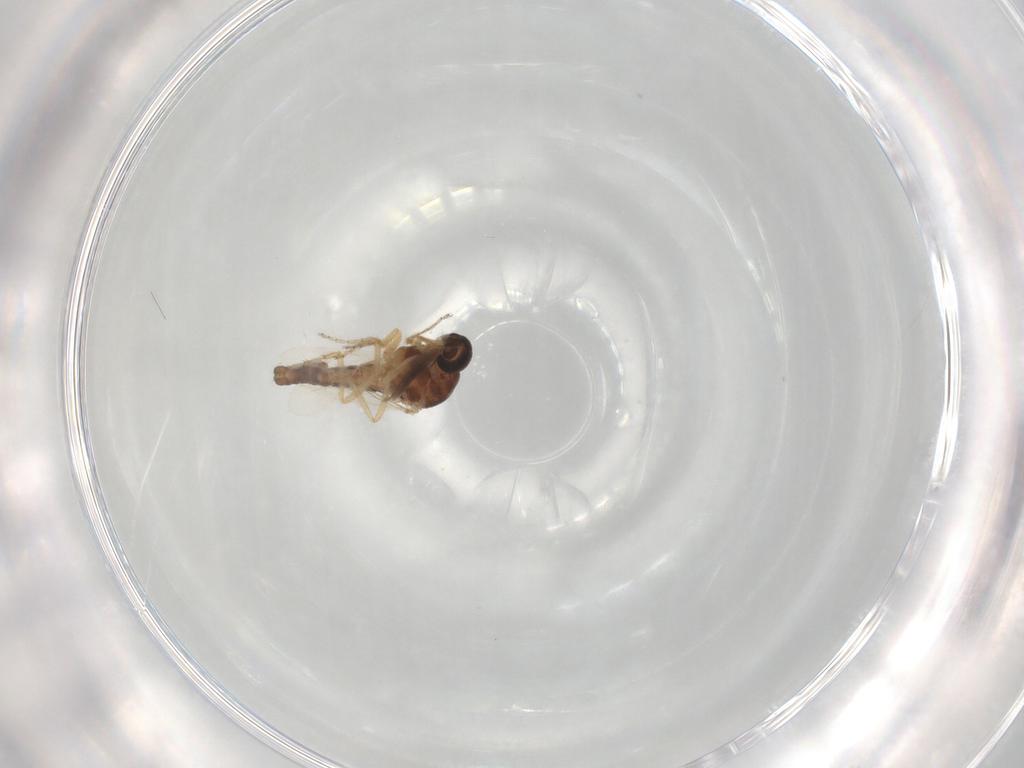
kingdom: Animalia
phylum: Arthropoda
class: Insecta
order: Diptera
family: Ceratopogonidae
